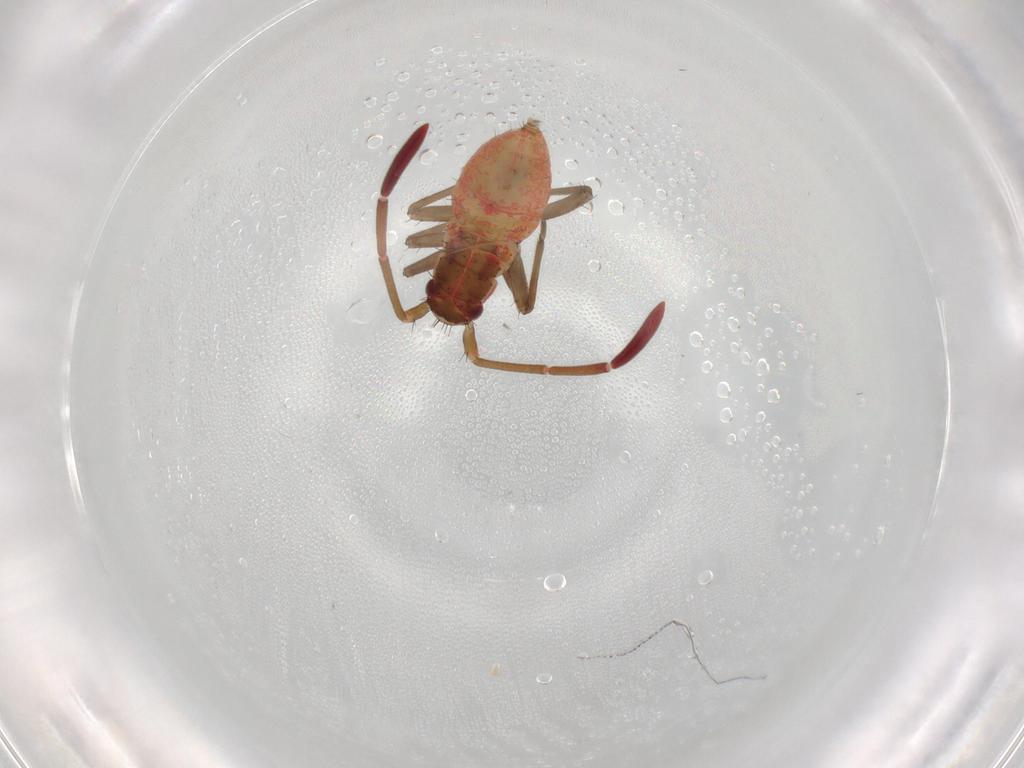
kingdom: Animalia
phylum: Arthropoda
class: Insecta
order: Hemiptera
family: Miridae
